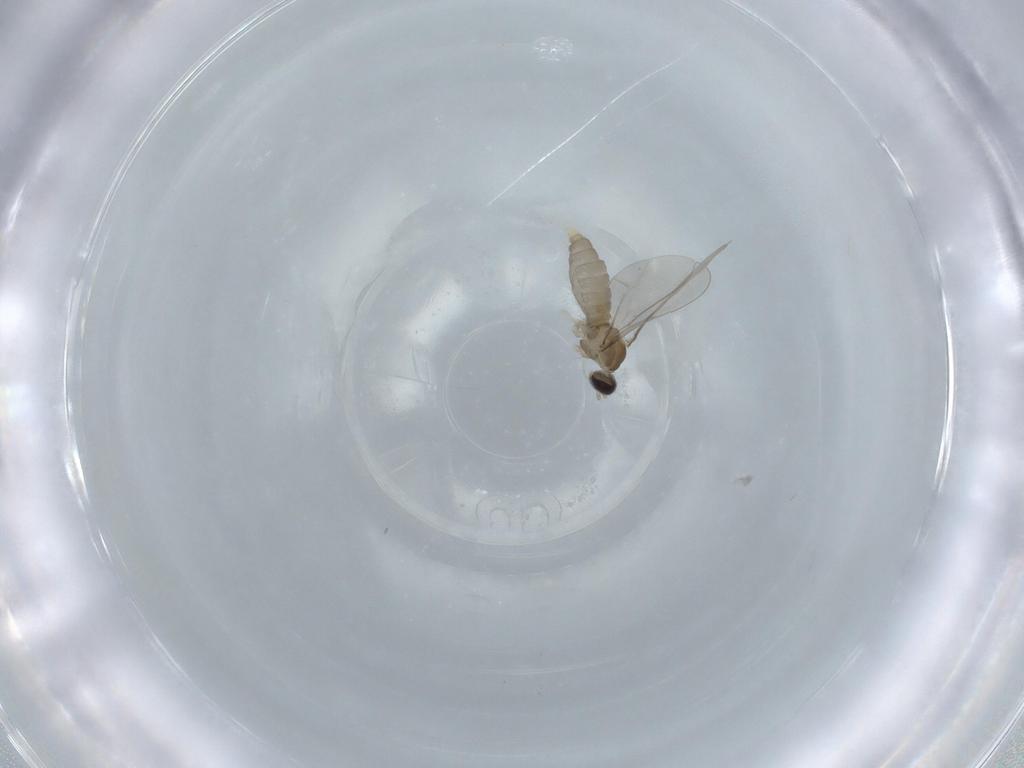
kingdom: Animalia
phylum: Arthropoda
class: Insecta
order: Diptera
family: Cecidomyiidae
